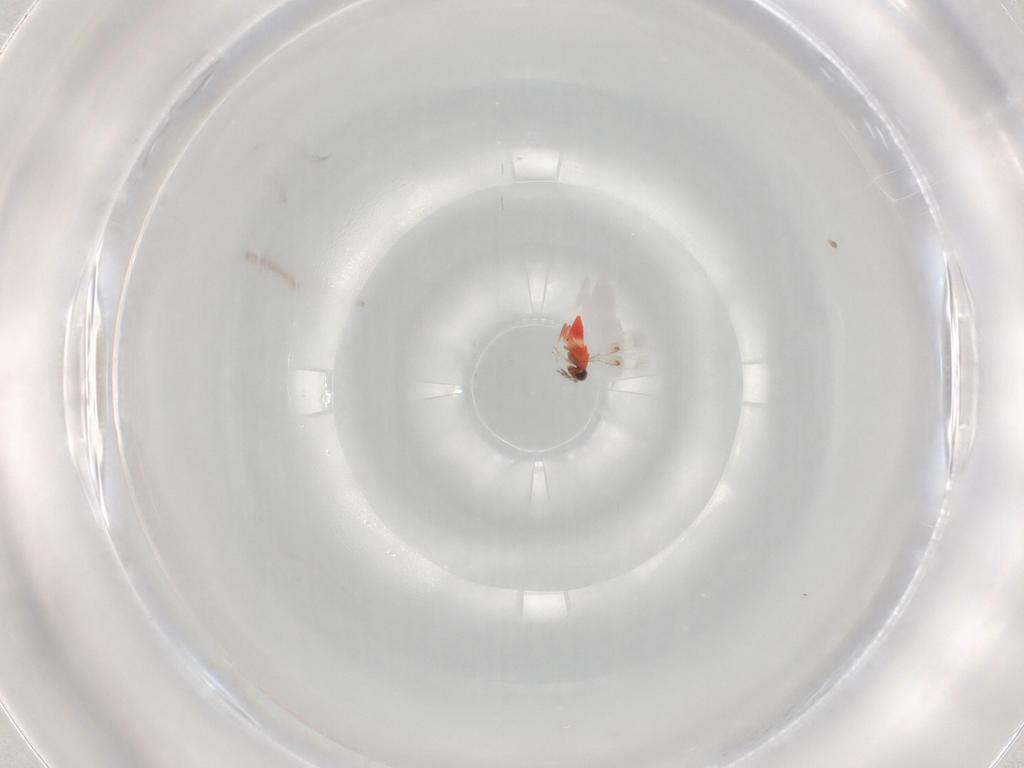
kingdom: Animalia
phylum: Arthropoda
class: Insecta
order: Hymenoptera
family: Trichogrammatidae
